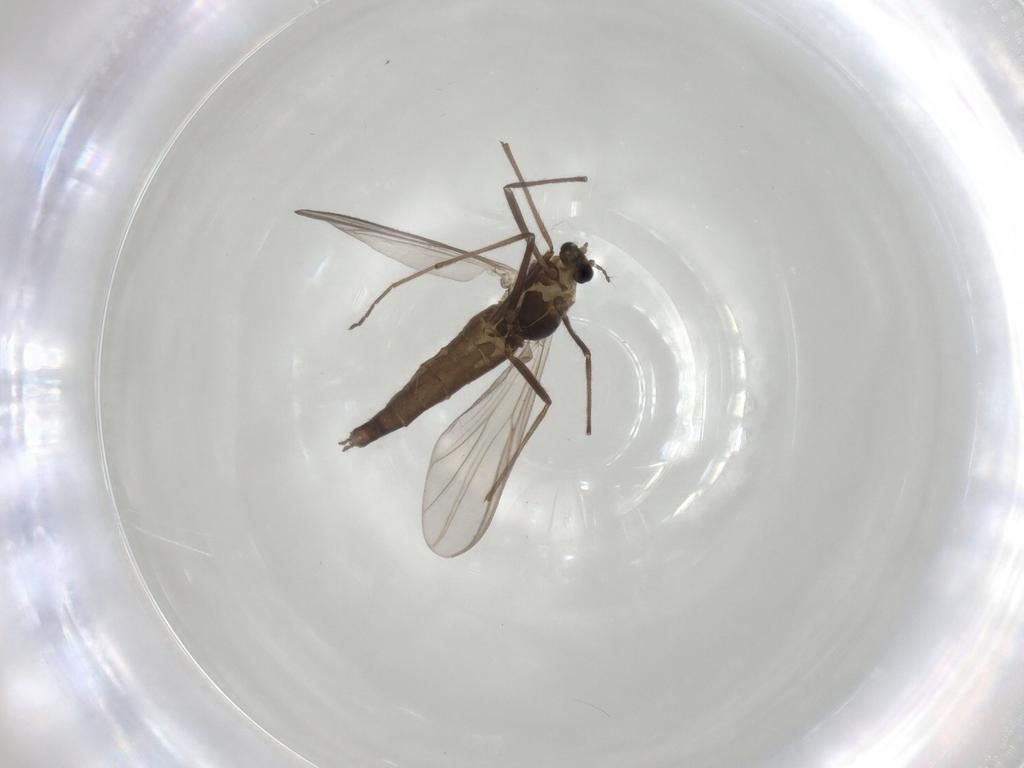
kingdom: Animalia
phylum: Arthropoda
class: Insecta
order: Diptera
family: Chironomidae
